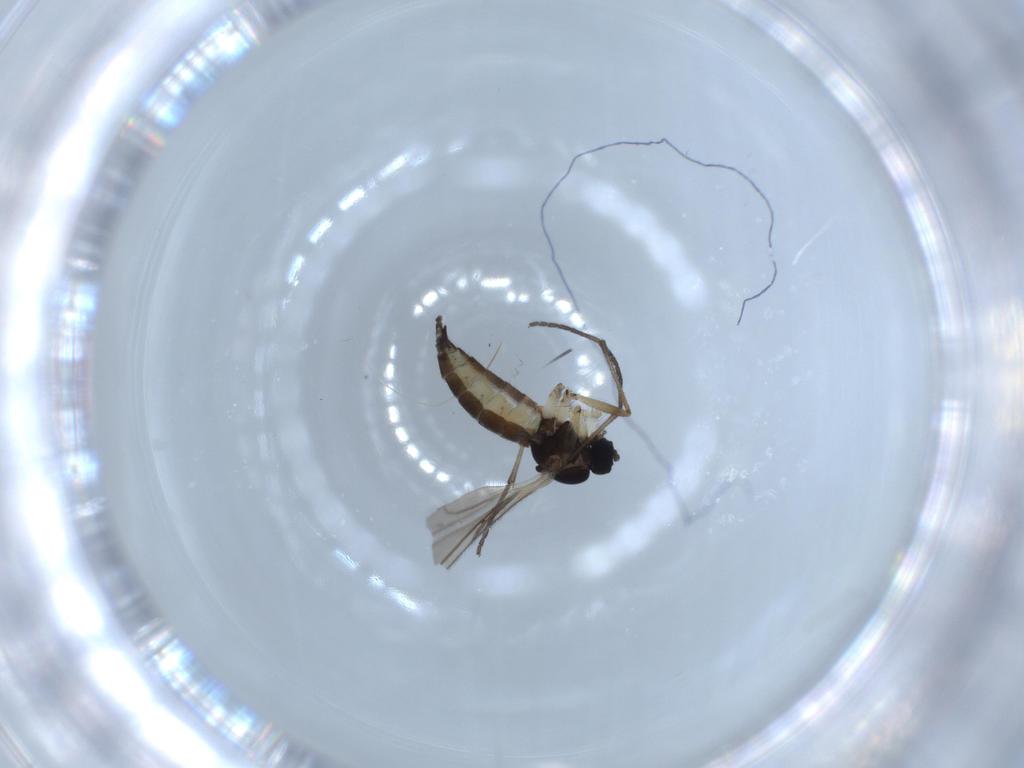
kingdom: Animalia
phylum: Arthropoda
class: Insecta
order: Diptera
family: Sciaridae
